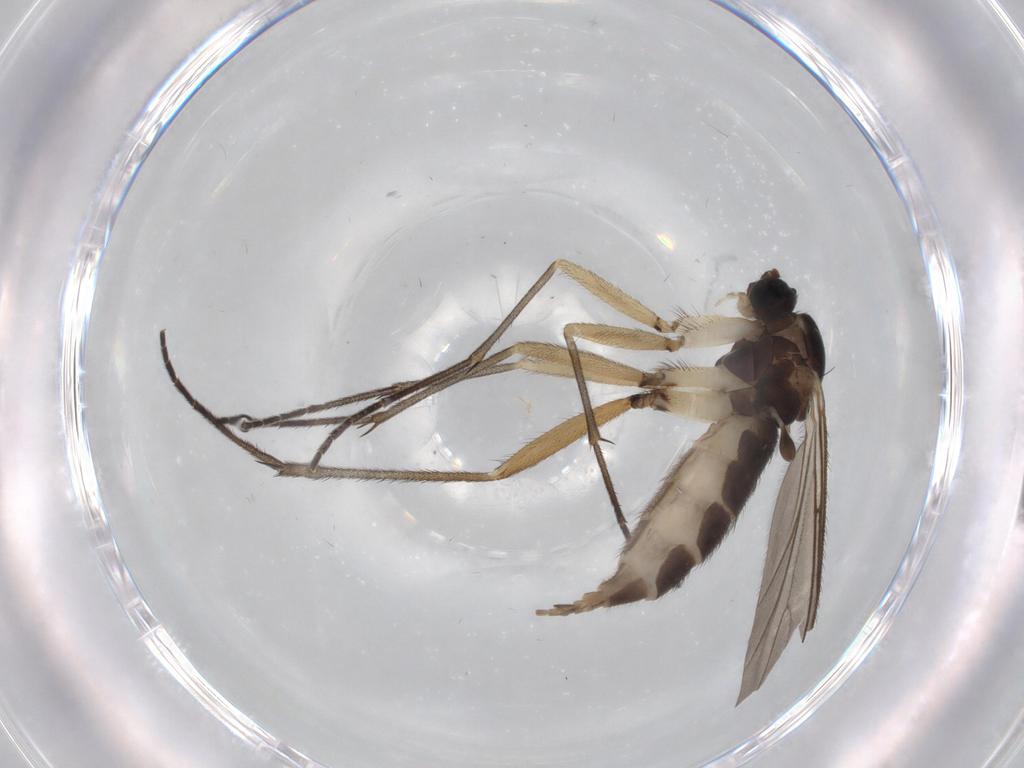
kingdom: Animalia
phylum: Arthropoda
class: Insecta
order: Diptera
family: Sciaridae
